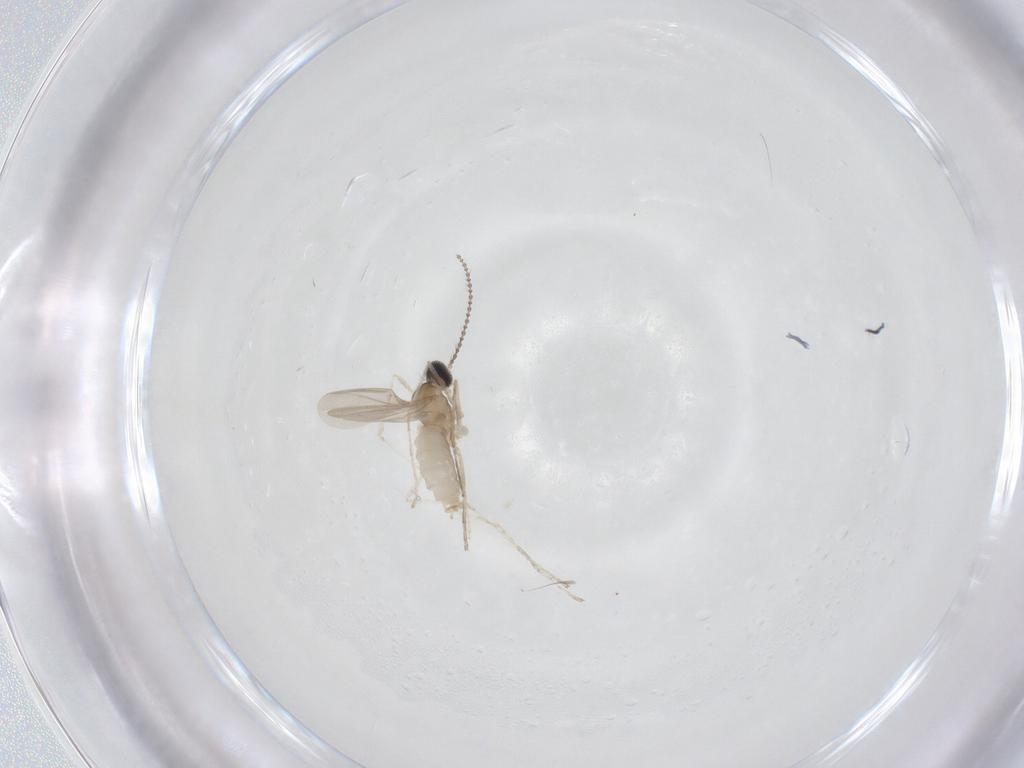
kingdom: Animalia
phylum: Arthropoda
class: Insecta
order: Diptera
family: Cecidomyiidae
